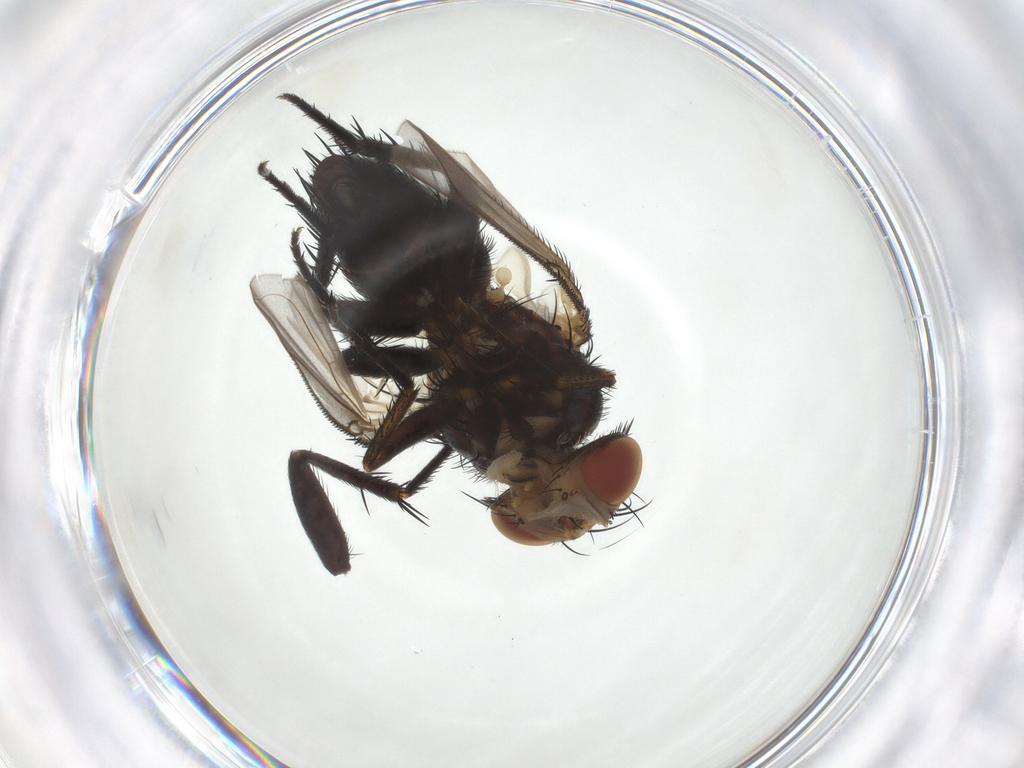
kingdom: Animalia
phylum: Arthropoda
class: Insecta
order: Diptera
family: Tachinidae
